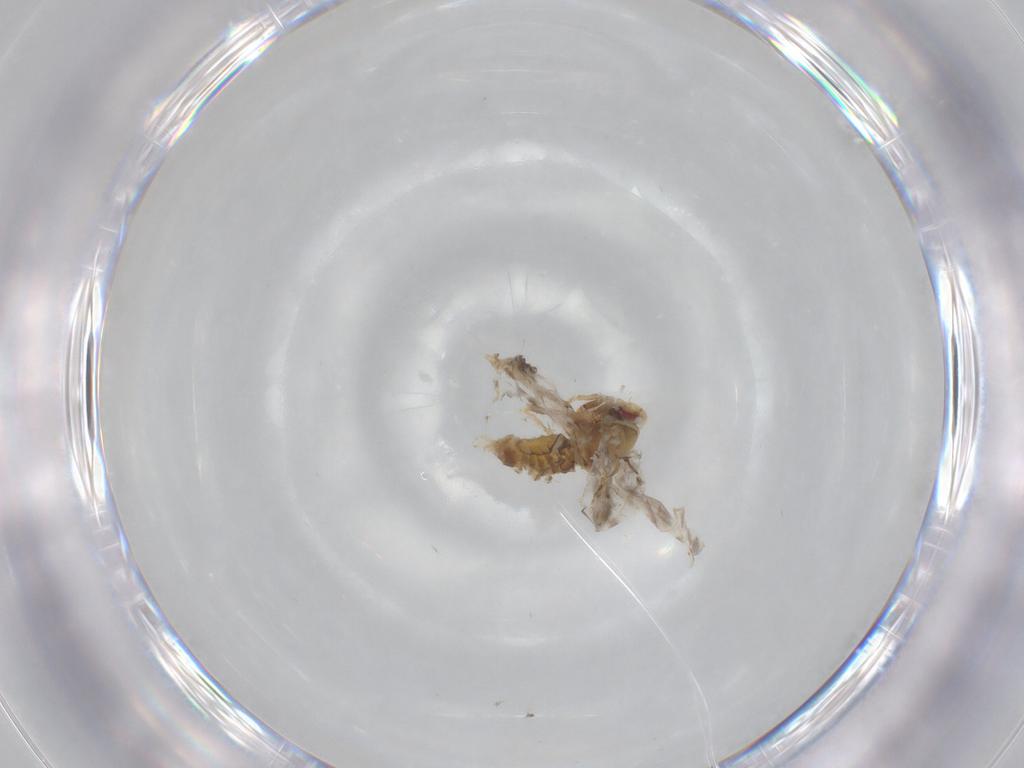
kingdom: Animalia
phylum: Arthropoda
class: Insecta
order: Diptera
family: Psychodidae
